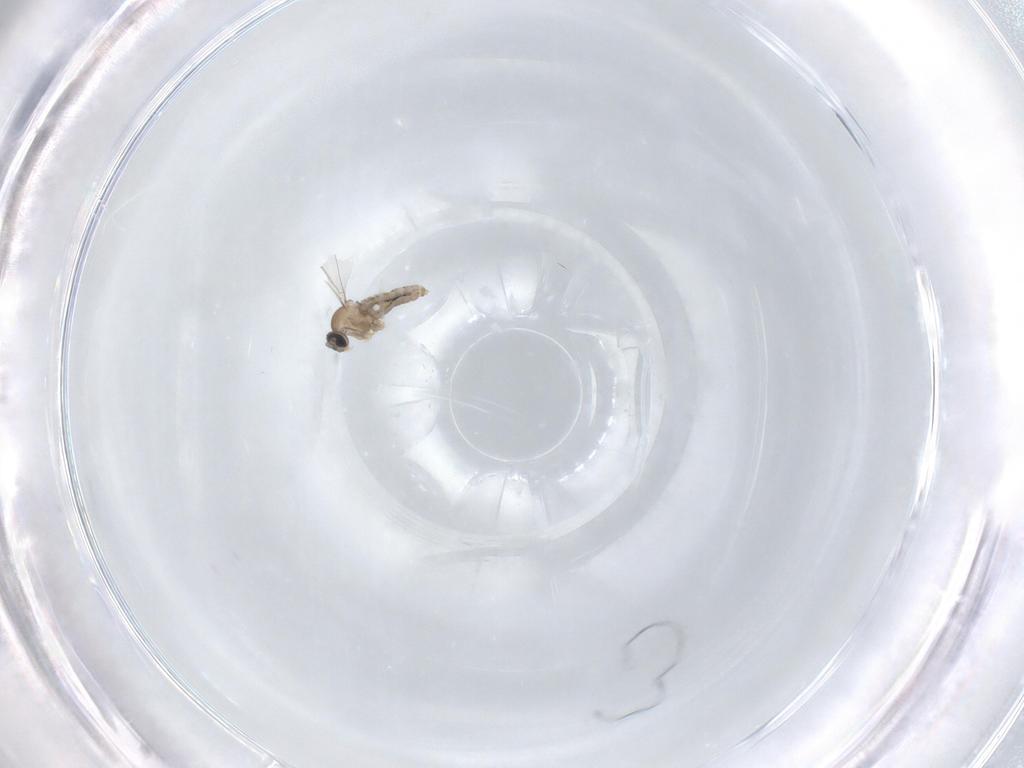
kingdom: Animalia
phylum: Arthropoda
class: Insecta
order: Diptera
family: Cecidomyiidae
